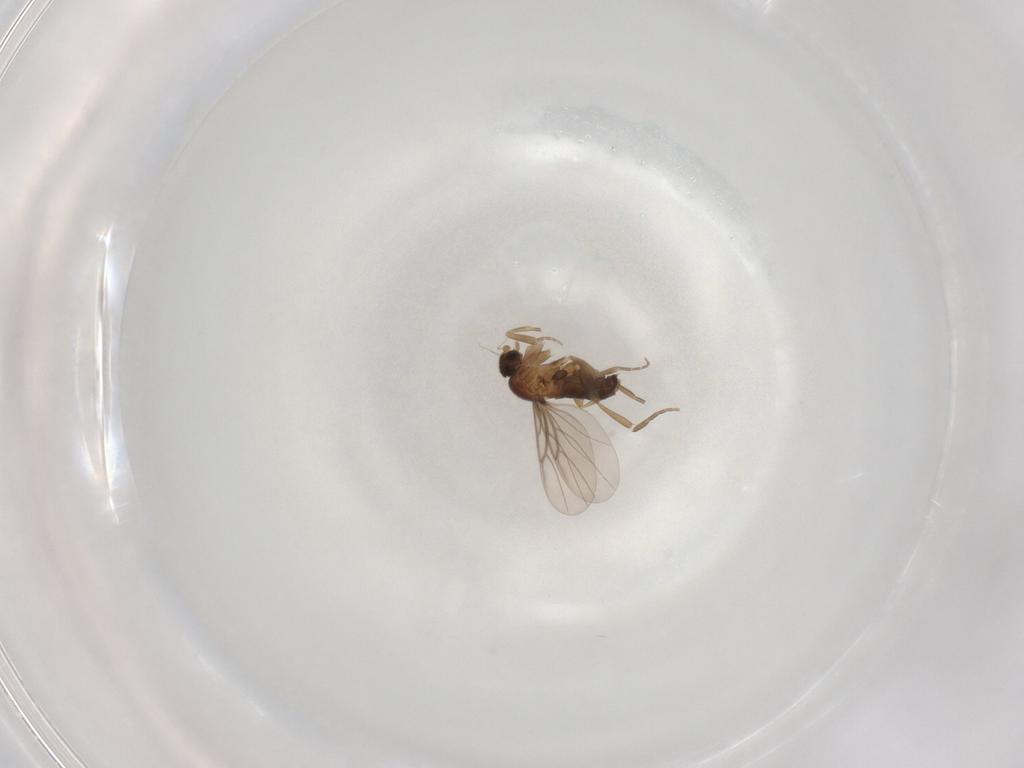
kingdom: Animalia
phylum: Arthropoda
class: Insecta
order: Diptera
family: Phoridae
